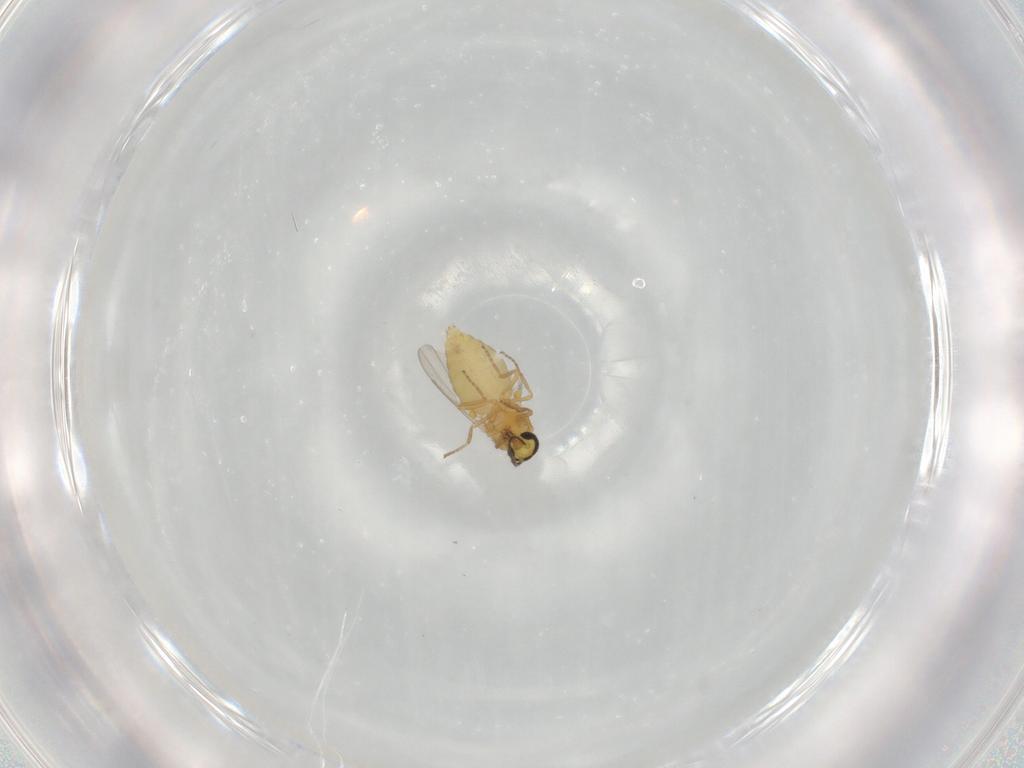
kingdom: Animalia
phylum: Arthropoda
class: Insecta
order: Diptera
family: Ceratopogonidae
